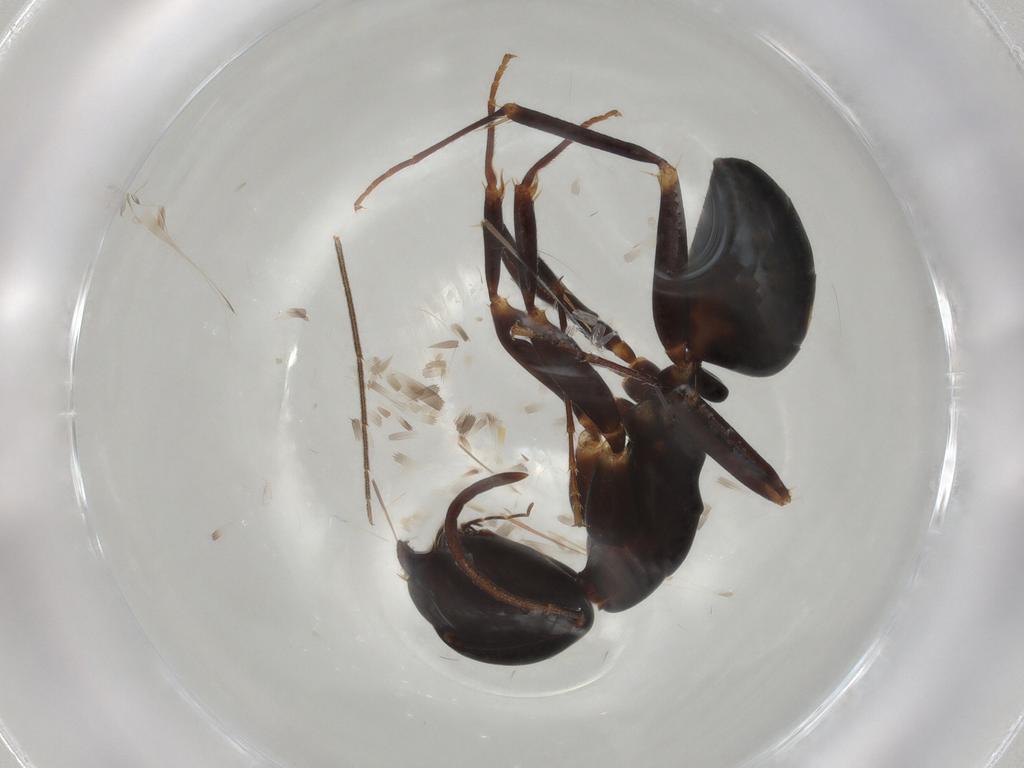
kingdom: Animalia
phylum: Arthropoda
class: Insecta
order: Hymenoptera
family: Formicidae
